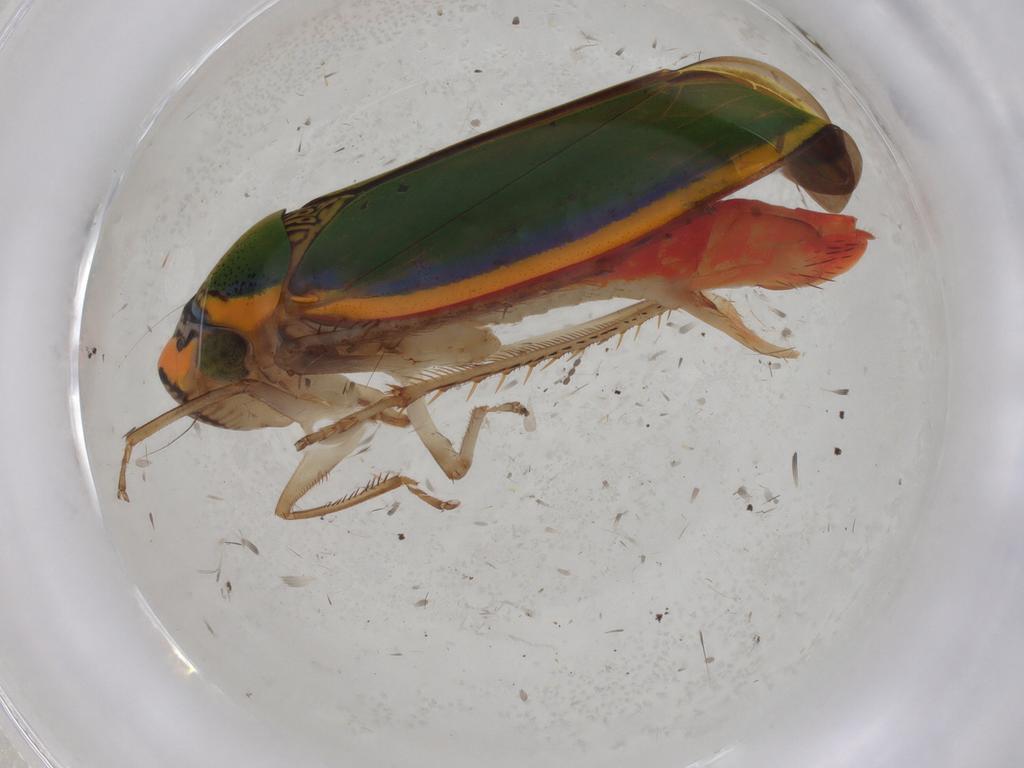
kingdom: Animalia
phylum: Arthropoda
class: Insecta
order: Hemiptera
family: Cicadellidae
